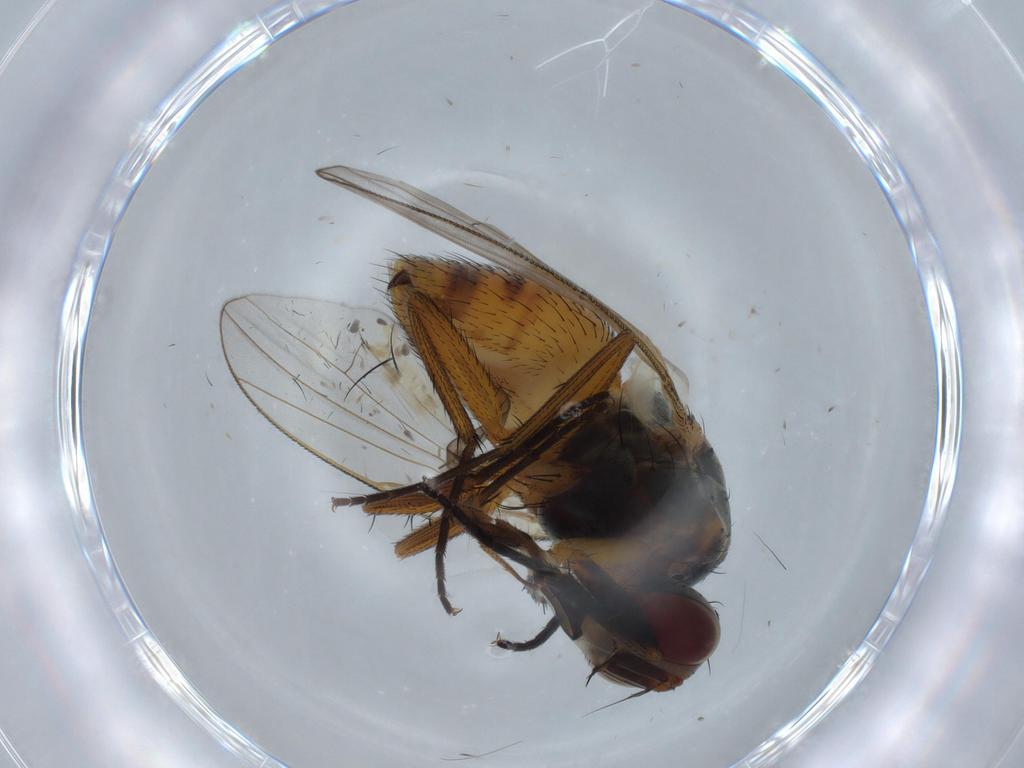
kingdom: Animalia
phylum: Arthropoda
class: Insecta
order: Diptera
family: Muscidae
